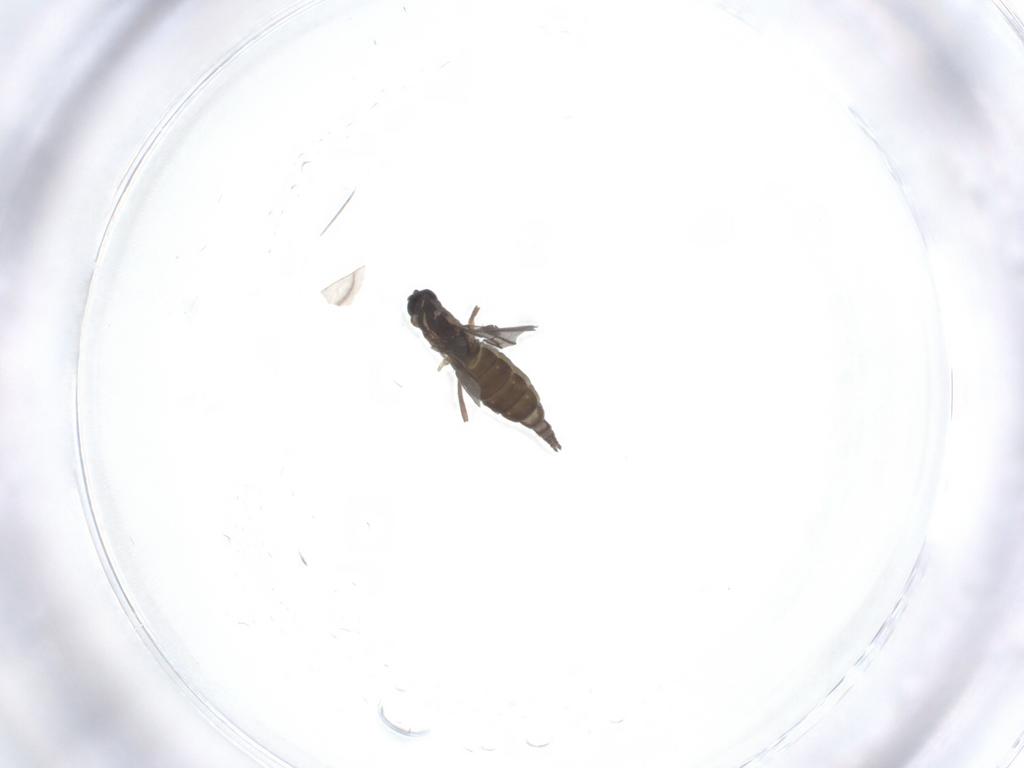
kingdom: Animalia
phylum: Arthropoda
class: Insecta
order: Diptera
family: Sciaridae
